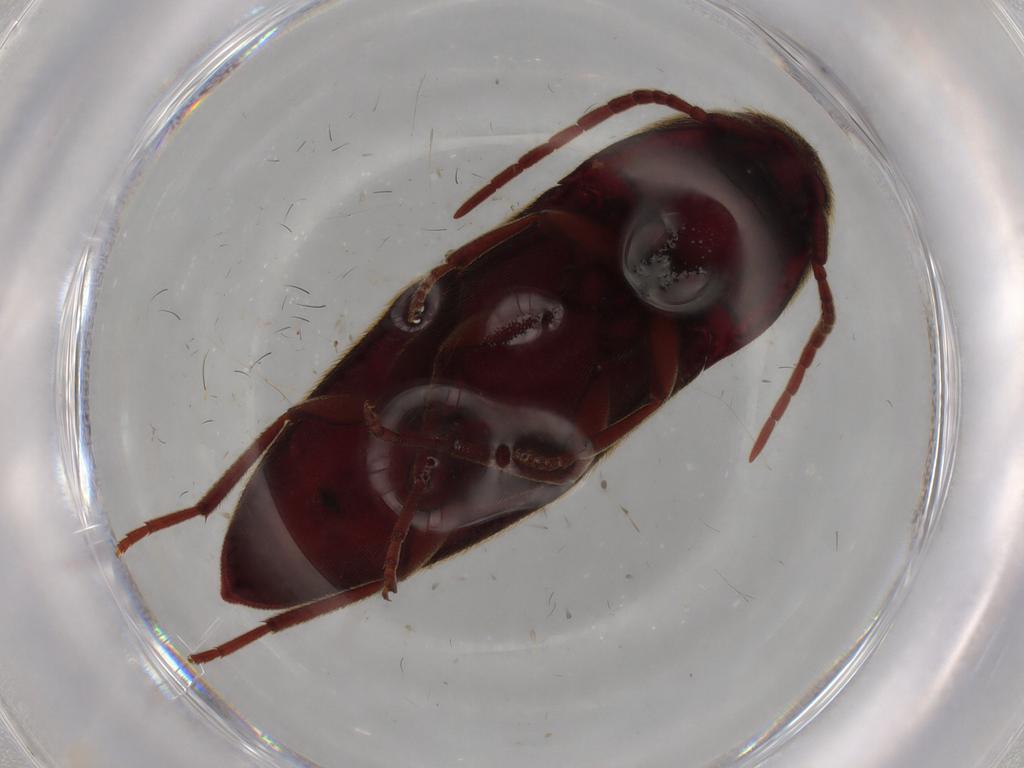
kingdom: Animalia
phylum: Arthropoda
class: Insecta
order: Coleoptera
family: Eucnemidae
